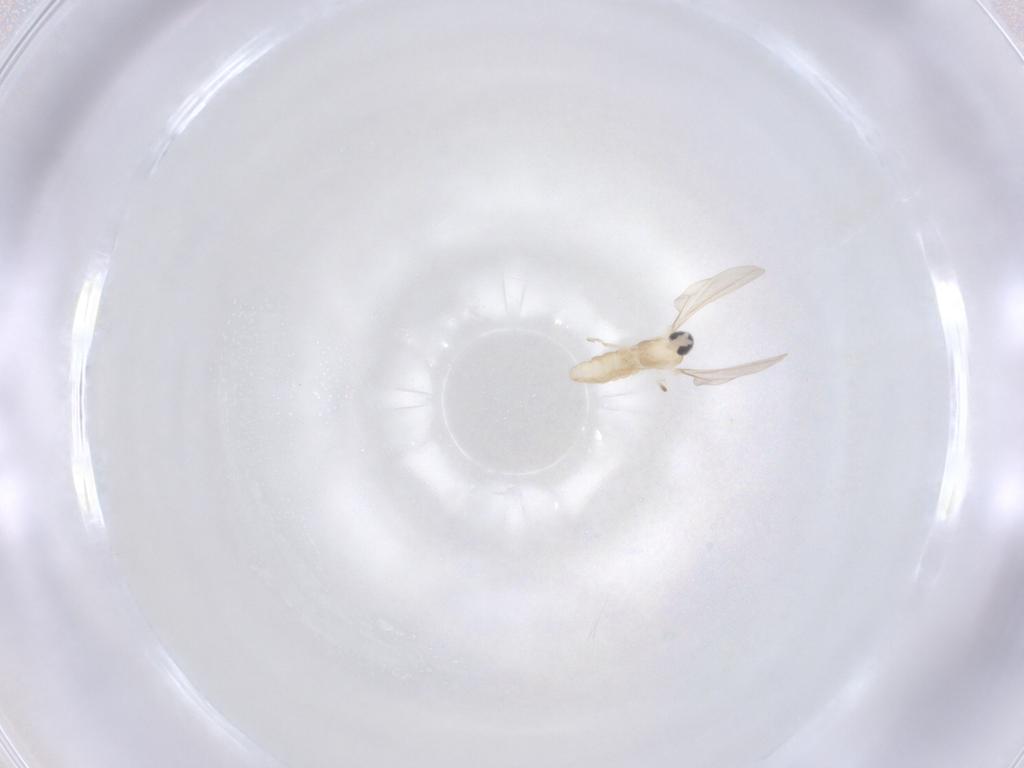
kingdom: Animalia
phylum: Arthropoda
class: Insecta
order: Diptera
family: Cecidomyiidae
